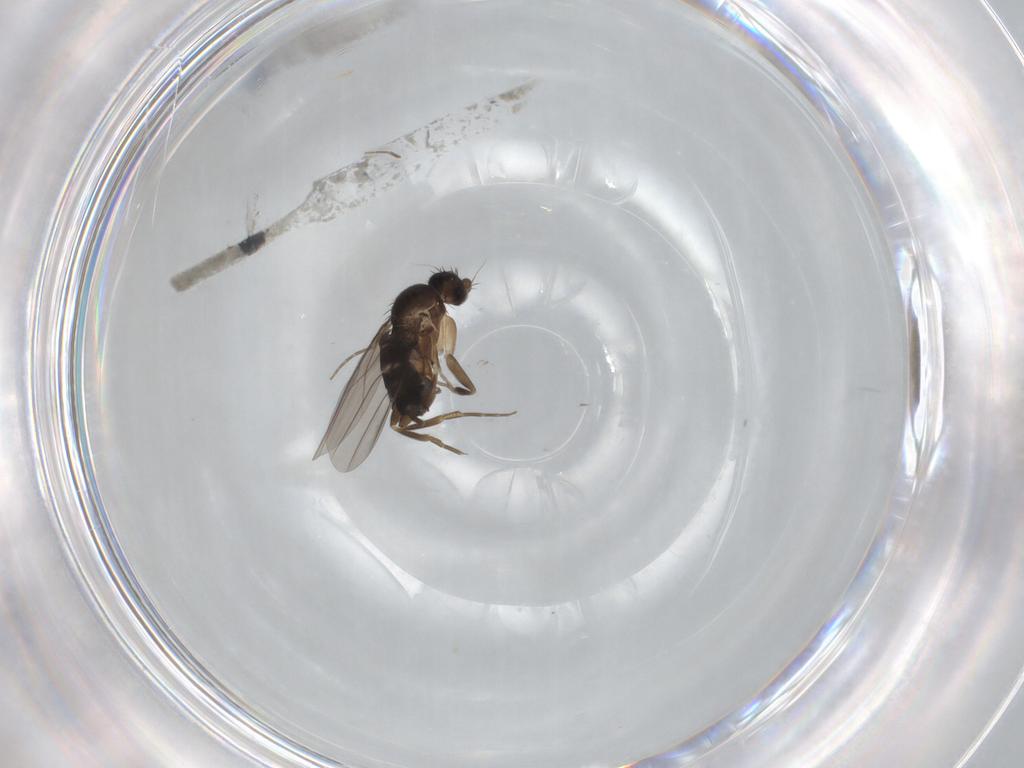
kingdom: Animalia
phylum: Arthropoda
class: Insecta
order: Diptera
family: Phoridae
